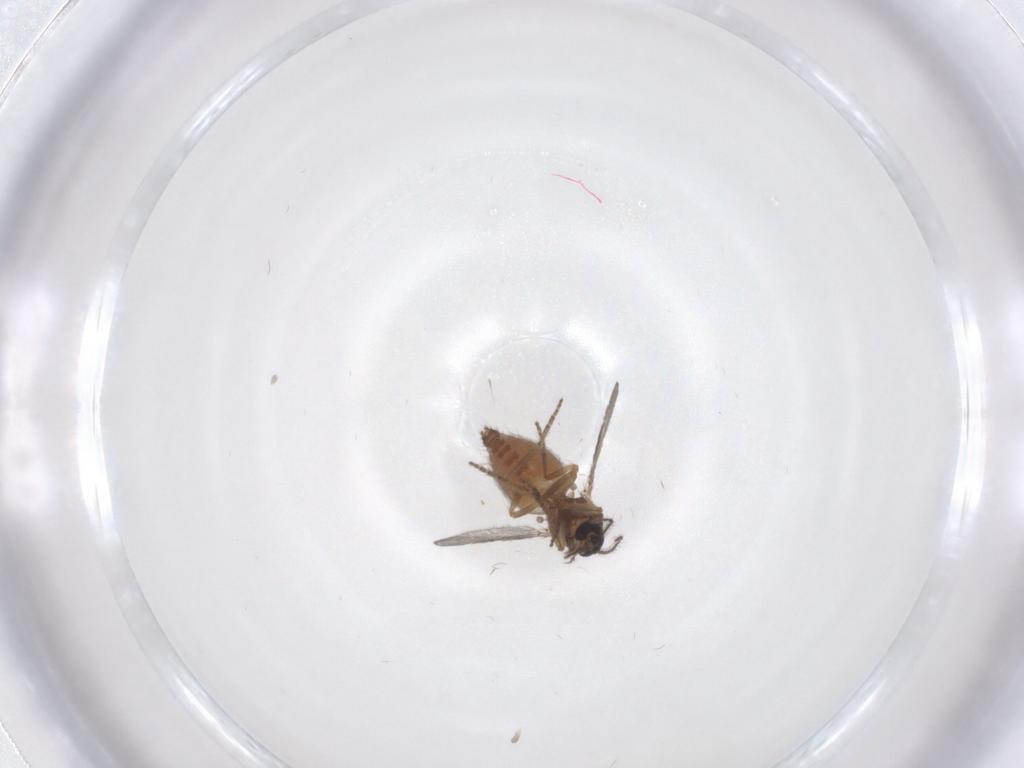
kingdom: Animalia
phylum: Arthropoda
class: Insecta
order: Diptera
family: Ceratopogonidae
